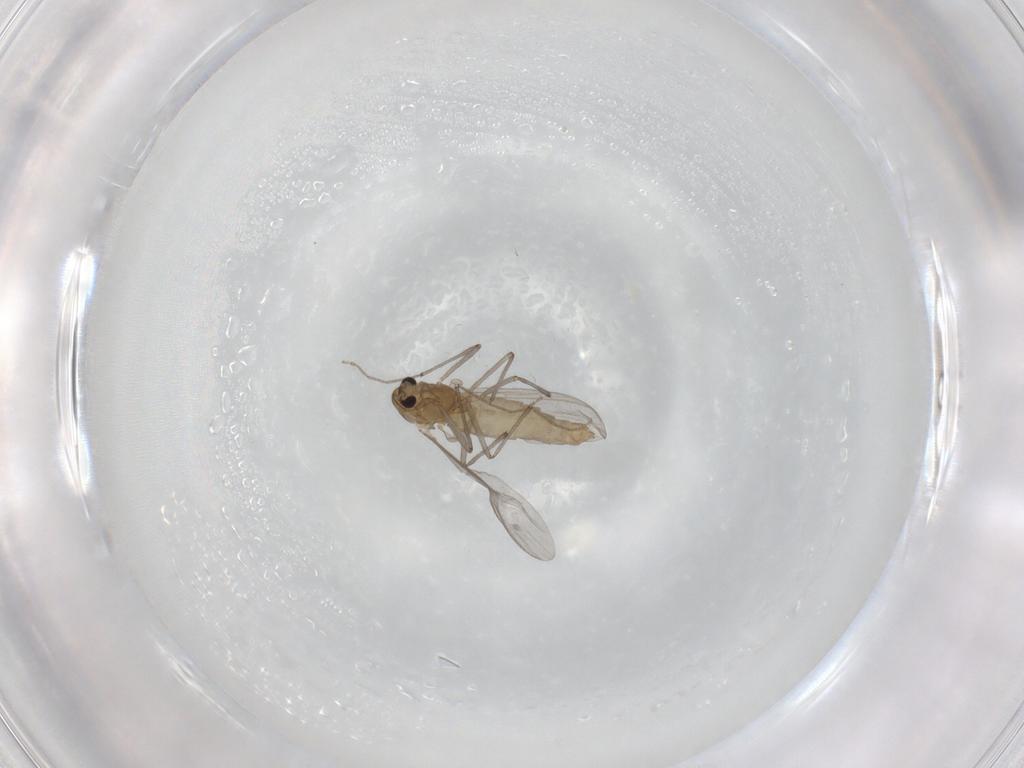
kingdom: Animalia
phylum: Arthropoda
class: Insecta
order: Diptera
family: Chironomidae
